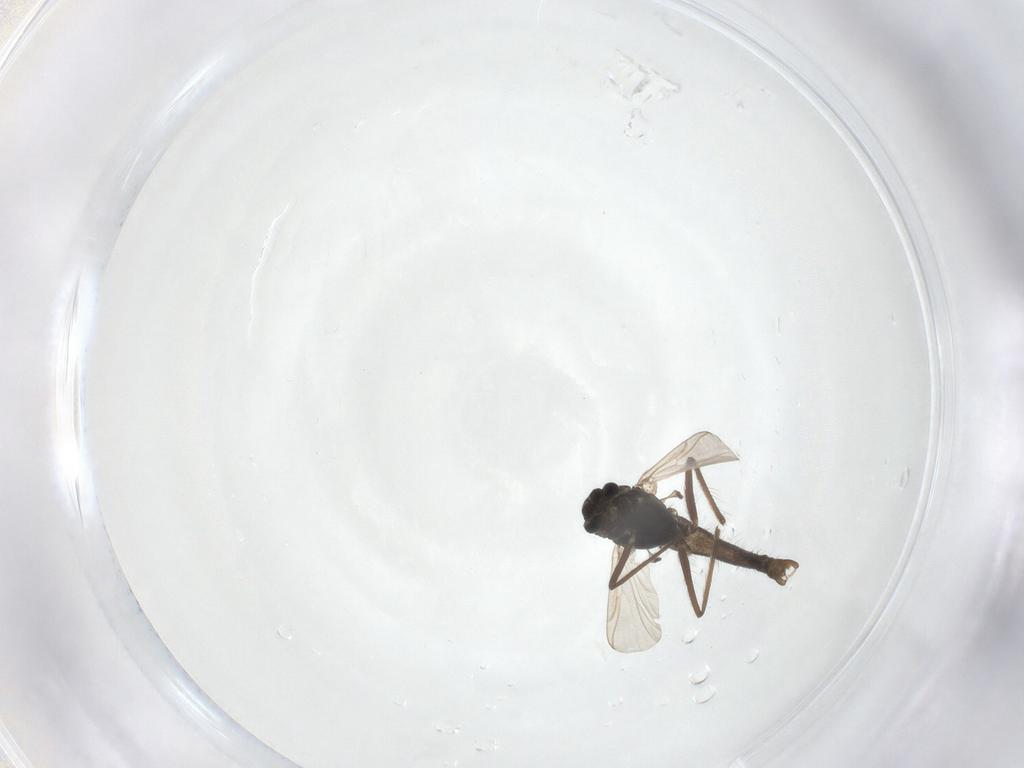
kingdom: Animalia
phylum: Arthropoda
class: Insecta
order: Diptera
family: Chironomidae
